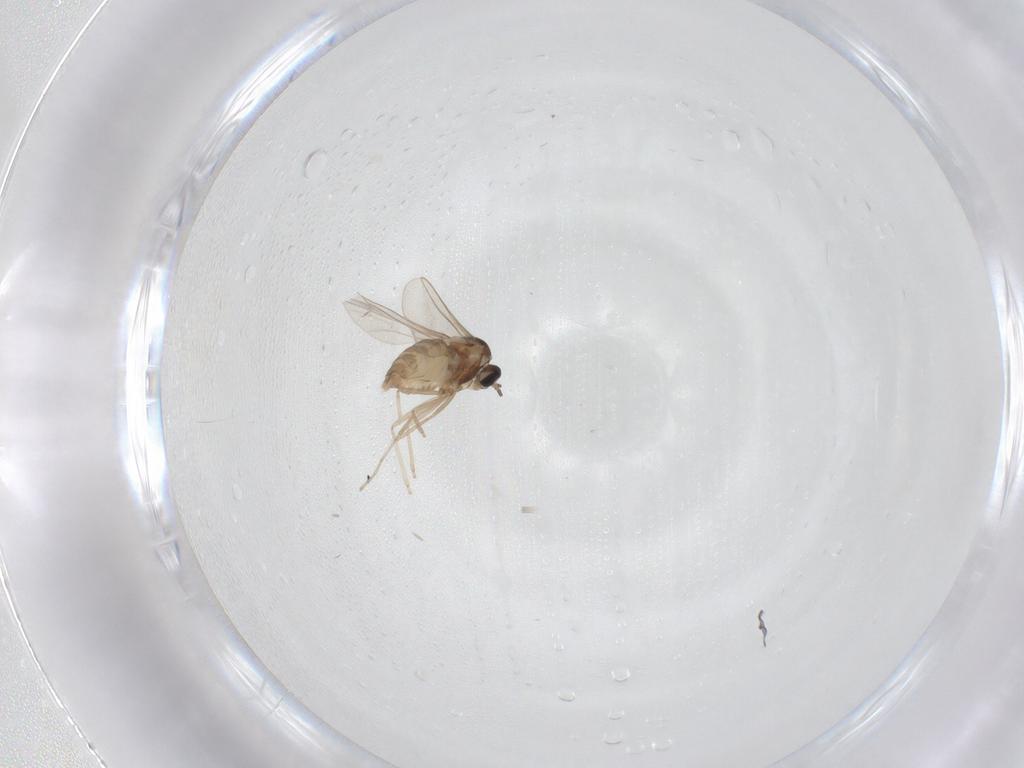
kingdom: Animalia
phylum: Arthropoda
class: Insecta
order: Diptera
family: Cecidomyiidae
